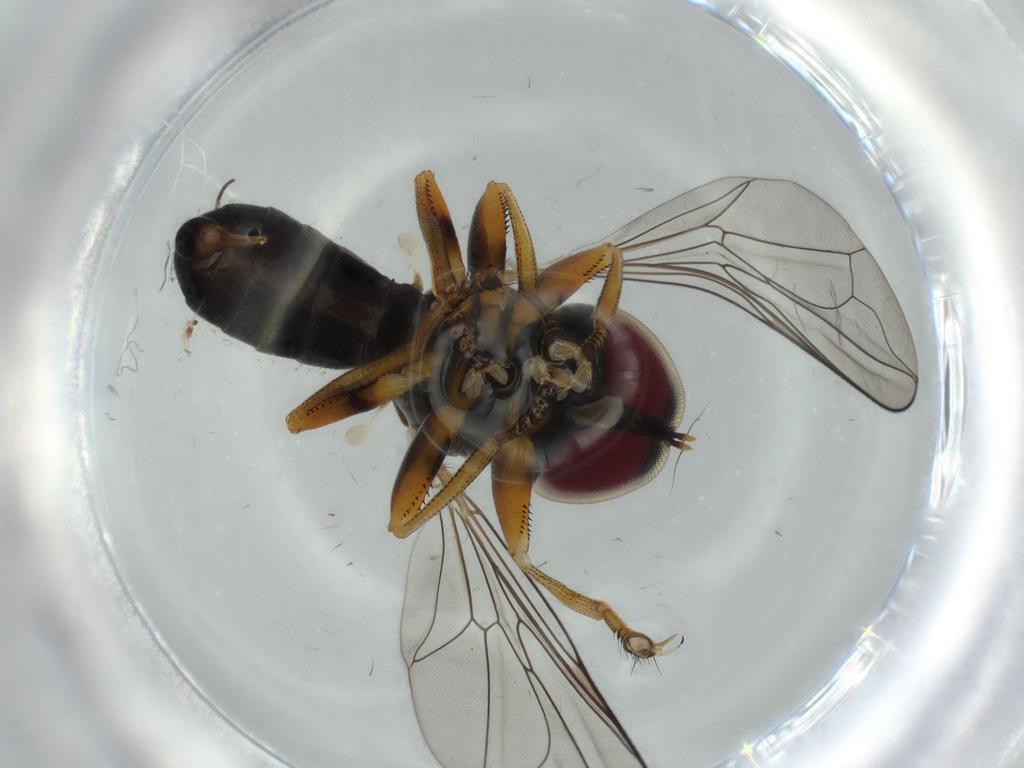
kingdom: Animalia
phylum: Arthropoda
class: Insecta
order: Diptera
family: Pipunculidae
